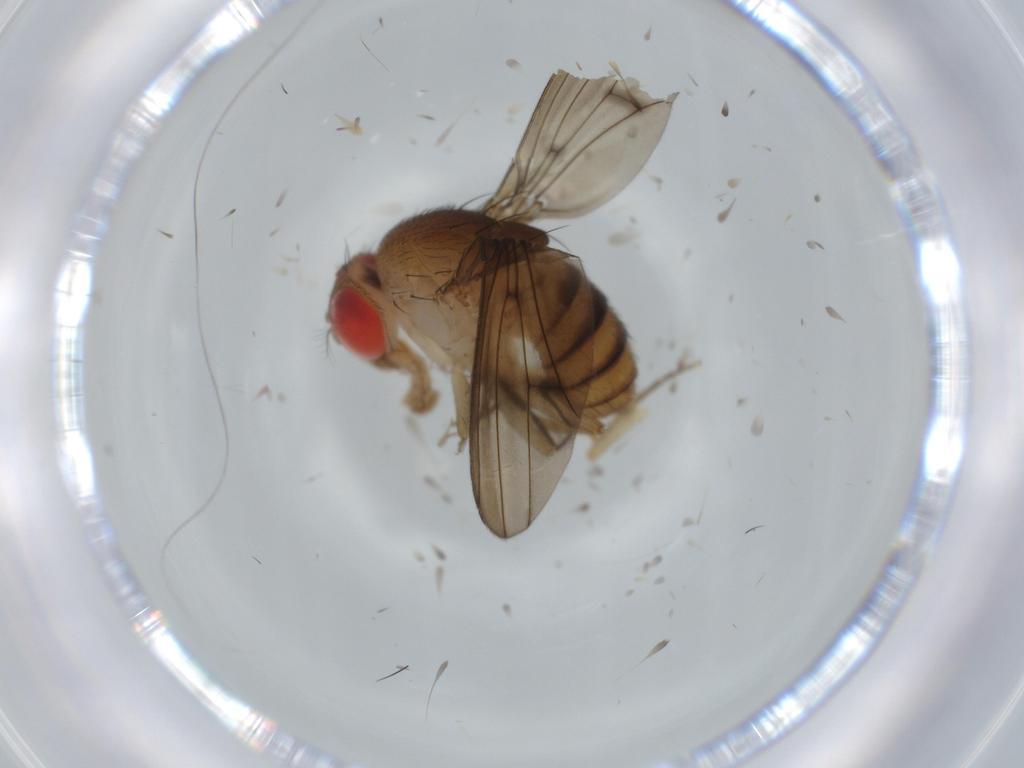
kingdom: Animalia
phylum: Arthropoda
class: Insecta
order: Diptera
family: Cecidomyiidae
